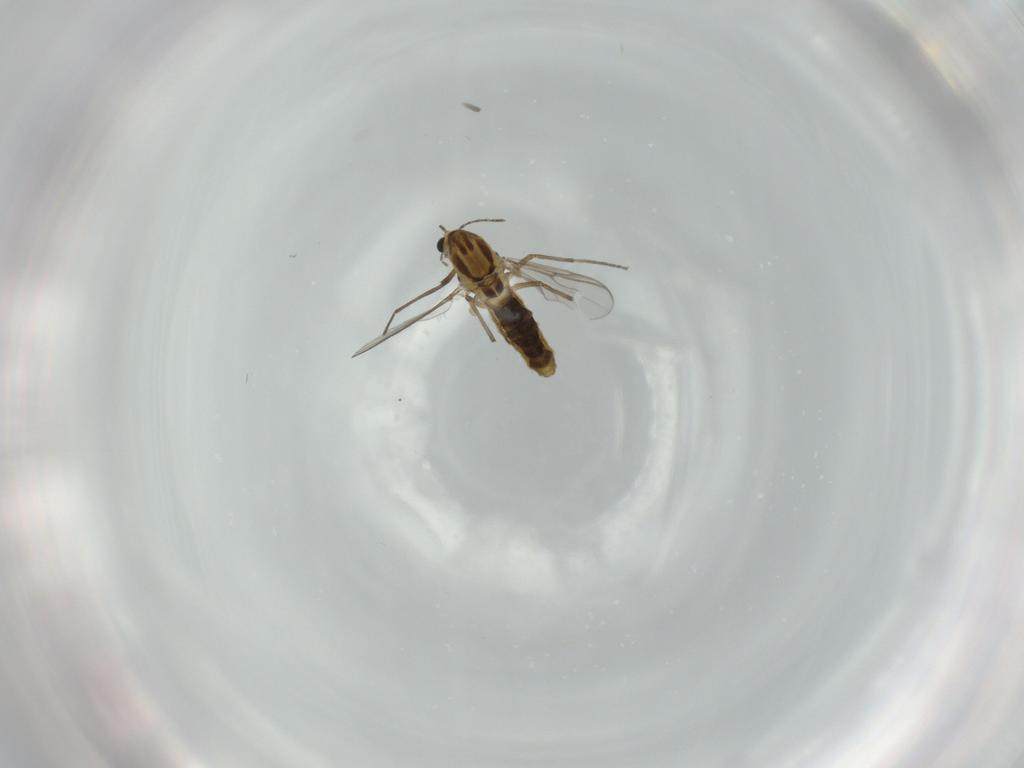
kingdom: Animalia
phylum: Arthropoda
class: Insecta
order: Diptera
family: Chironomidae
